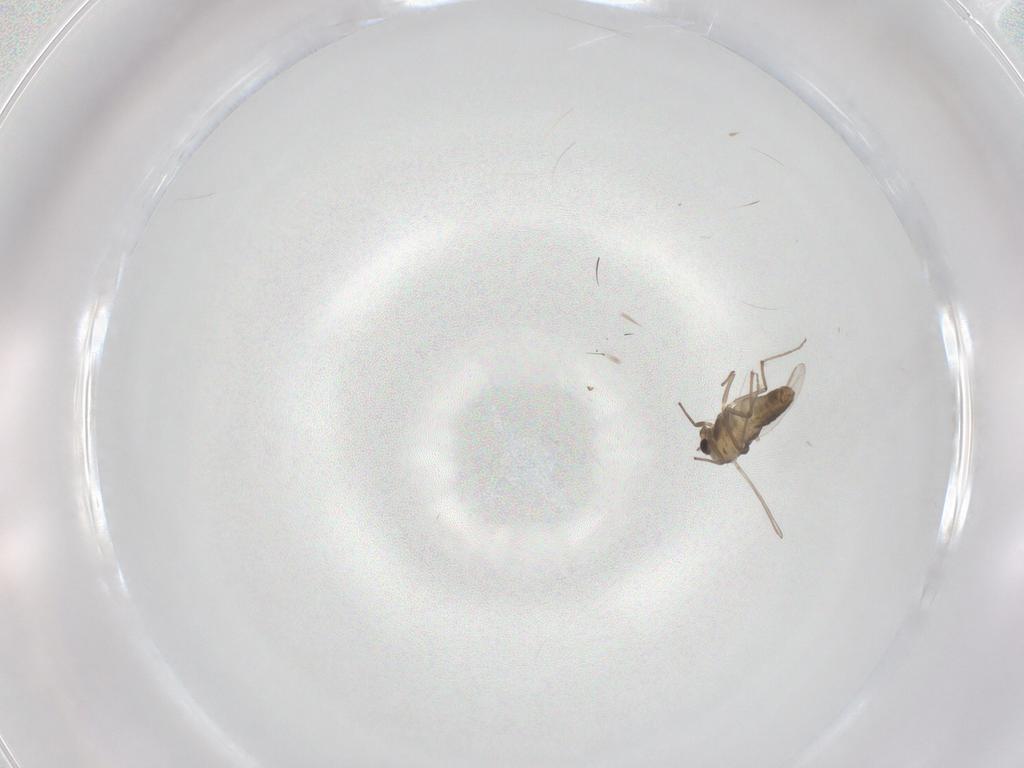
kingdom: Animalia
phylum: Arthropoda
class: Insecta
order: Diptera
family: Chironomidae
